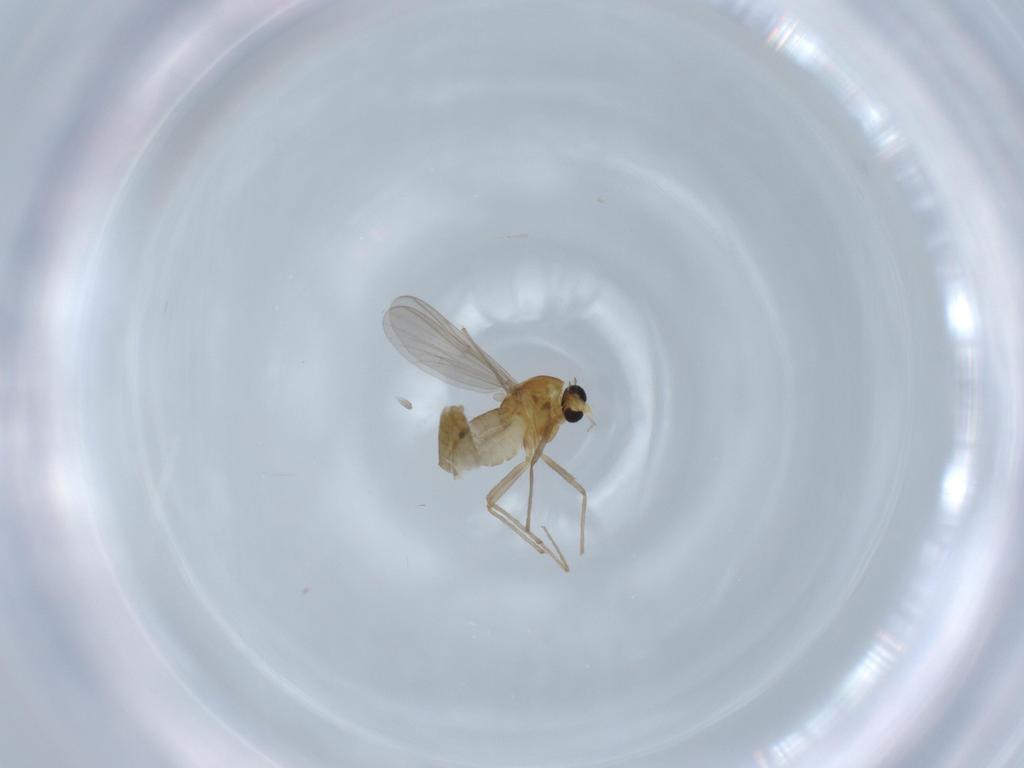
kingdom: Animalia
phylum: Arthropoda
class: Insecta
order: Diptera
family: Chironomidae
